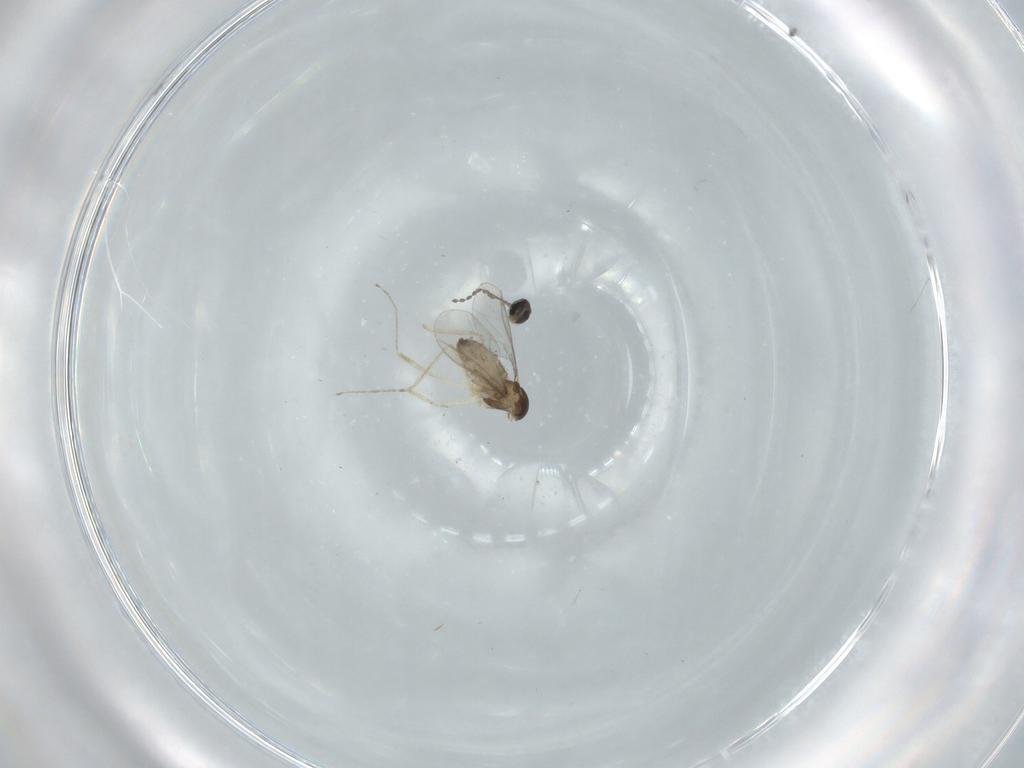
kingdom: Animalia
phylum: Arthropoda
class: Insecta
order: Diptera
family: Cecidomyiidae
